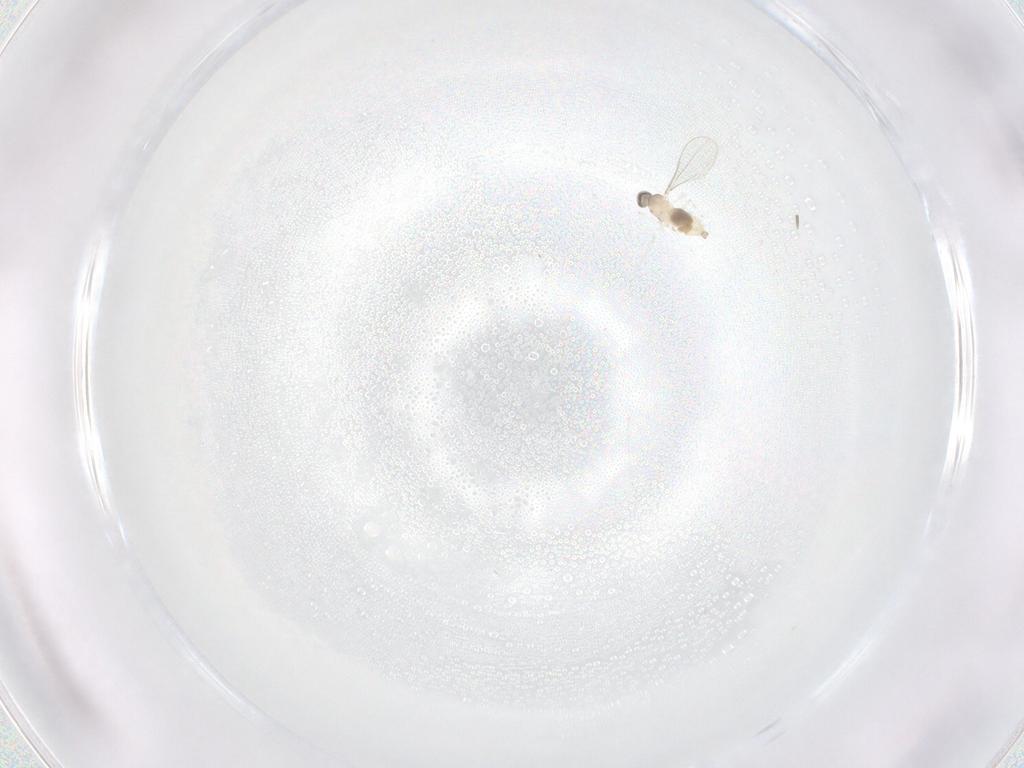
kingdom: Animalia
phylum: Arthropoda
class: Insecta
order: Diptera
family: Cecidomyiidae
